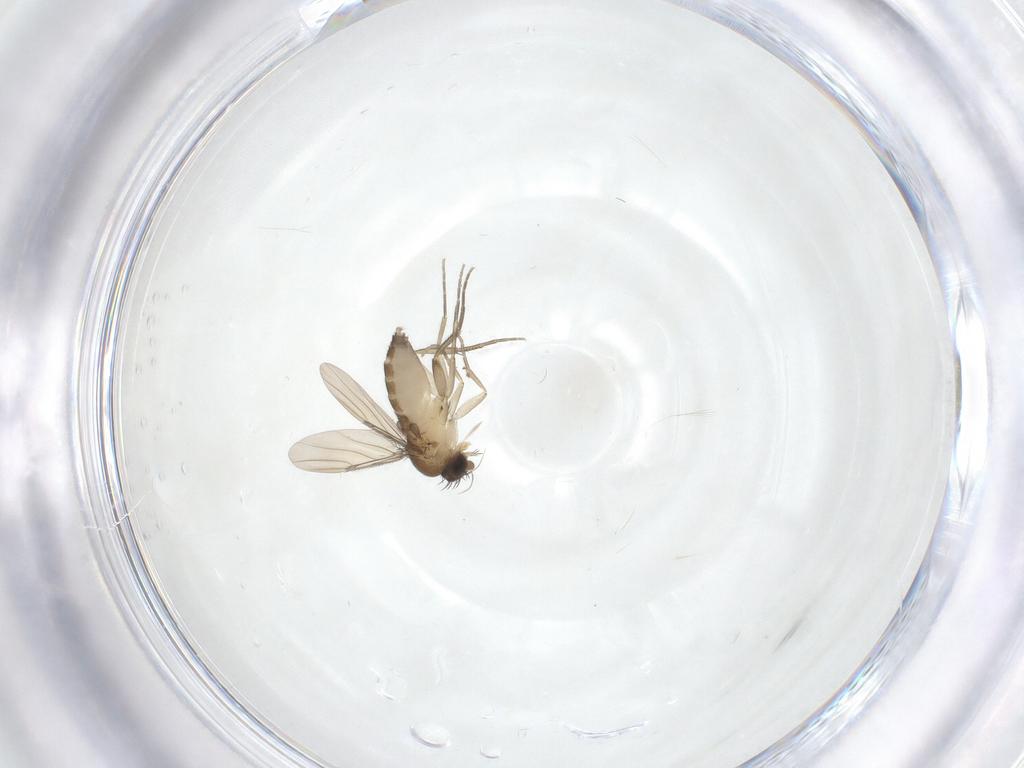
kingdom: Animalia
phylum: Arthropoda
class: Insecta
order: Diptera
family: Phoridae
